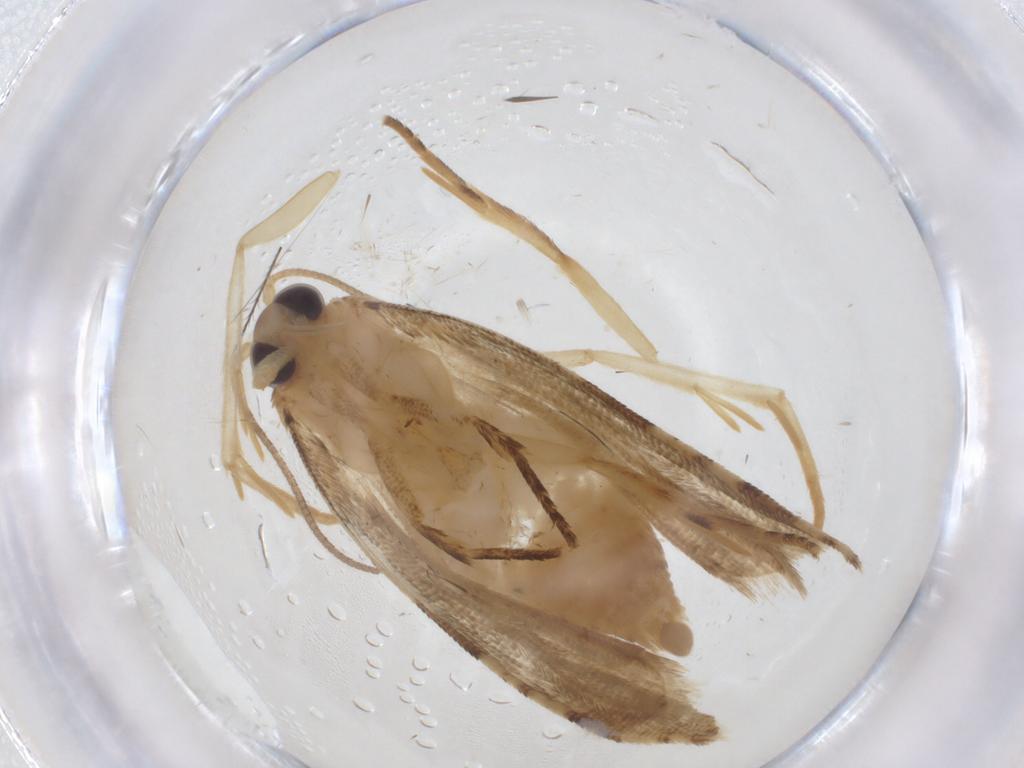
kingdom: Animalia
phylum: Arthropoda
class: Insecta
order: Lepidoptera
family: Tortricidae
